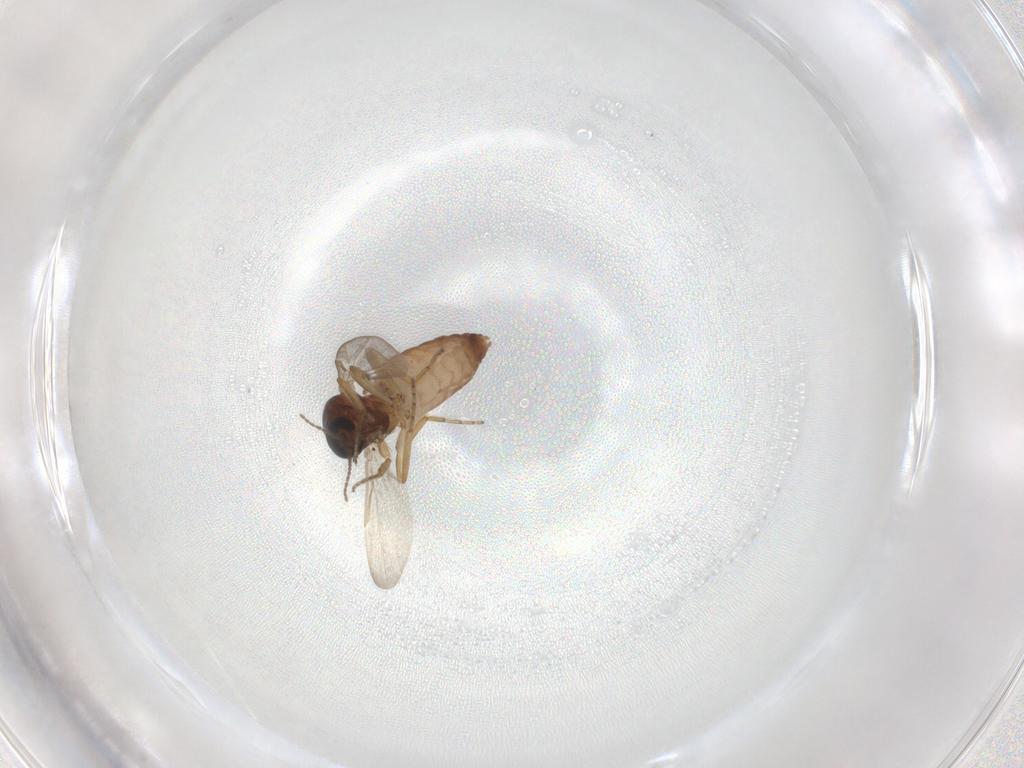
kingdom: Animalia
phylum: Arthropoda
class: Insecta
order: Diptera
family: Ceratopogonidae
